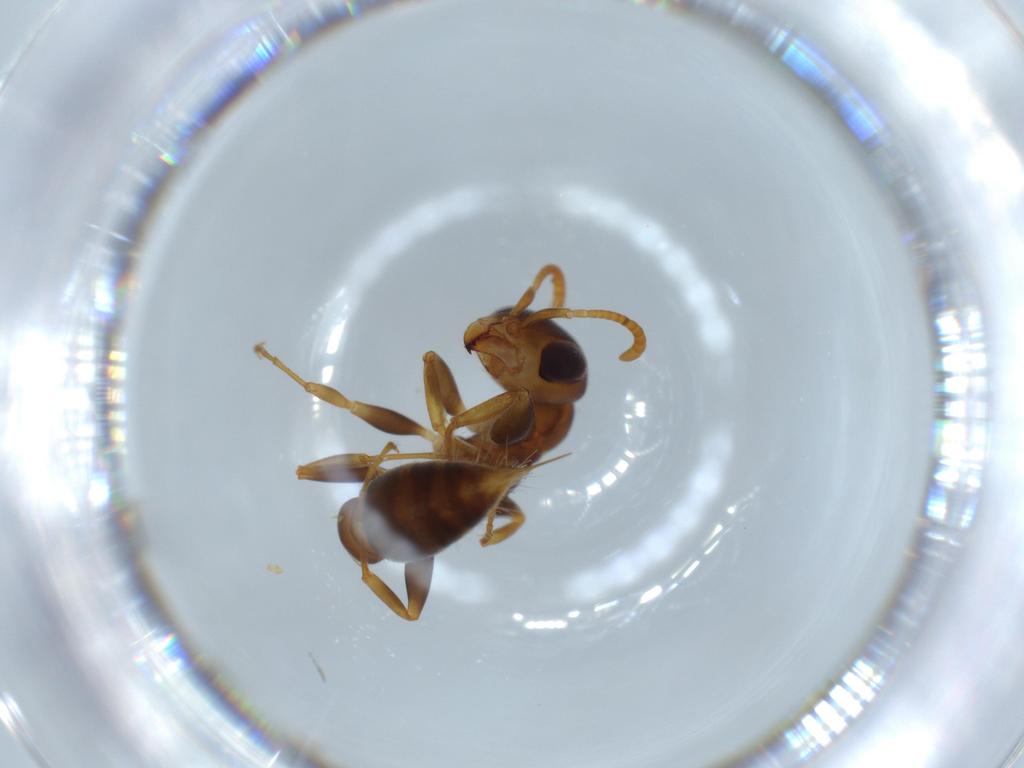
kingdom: Animalia
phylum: Arthropoda
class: Insecta
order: Hymenoptera
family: Formicidae
